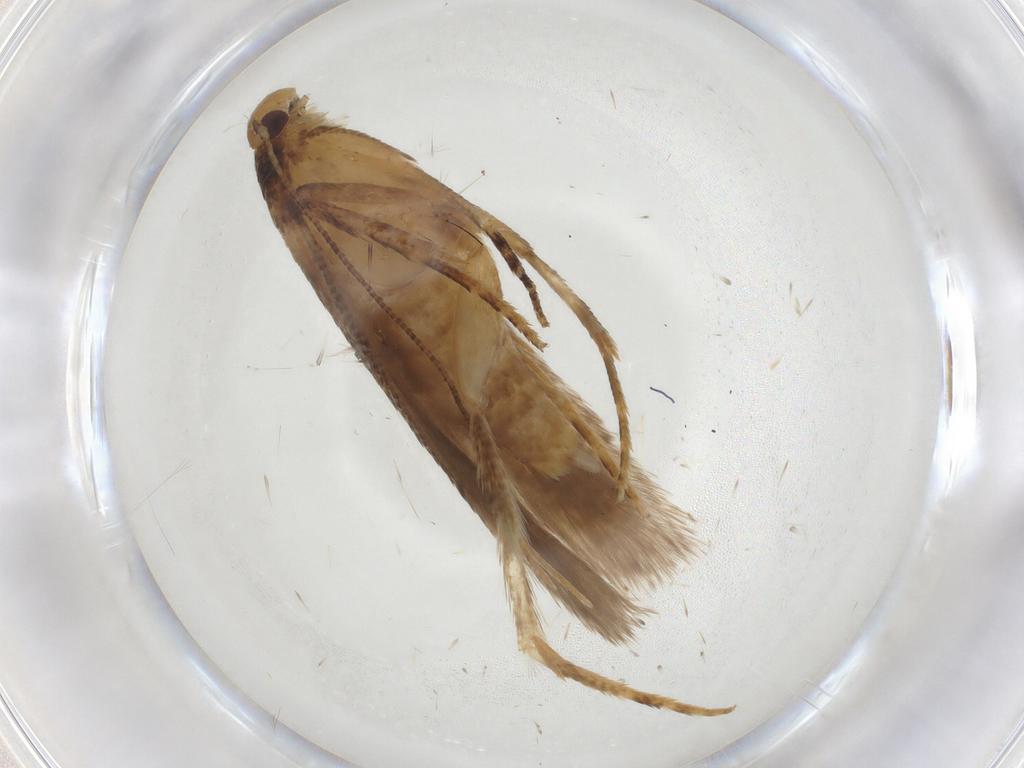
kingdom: Animalia
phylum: Arthropoda
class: Insecta
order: Lepidoptera
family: Gelechiidae
